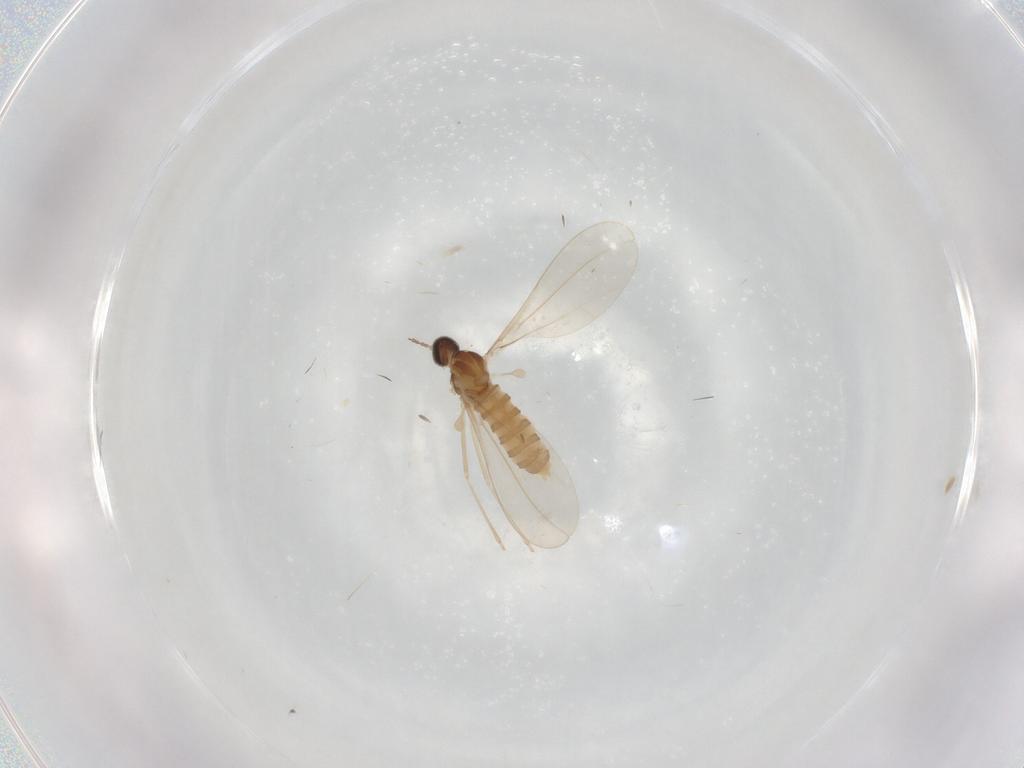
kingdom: Animalia
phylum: Arthropoda
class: Insecta
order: Diptera
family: Cecidomyiidae
